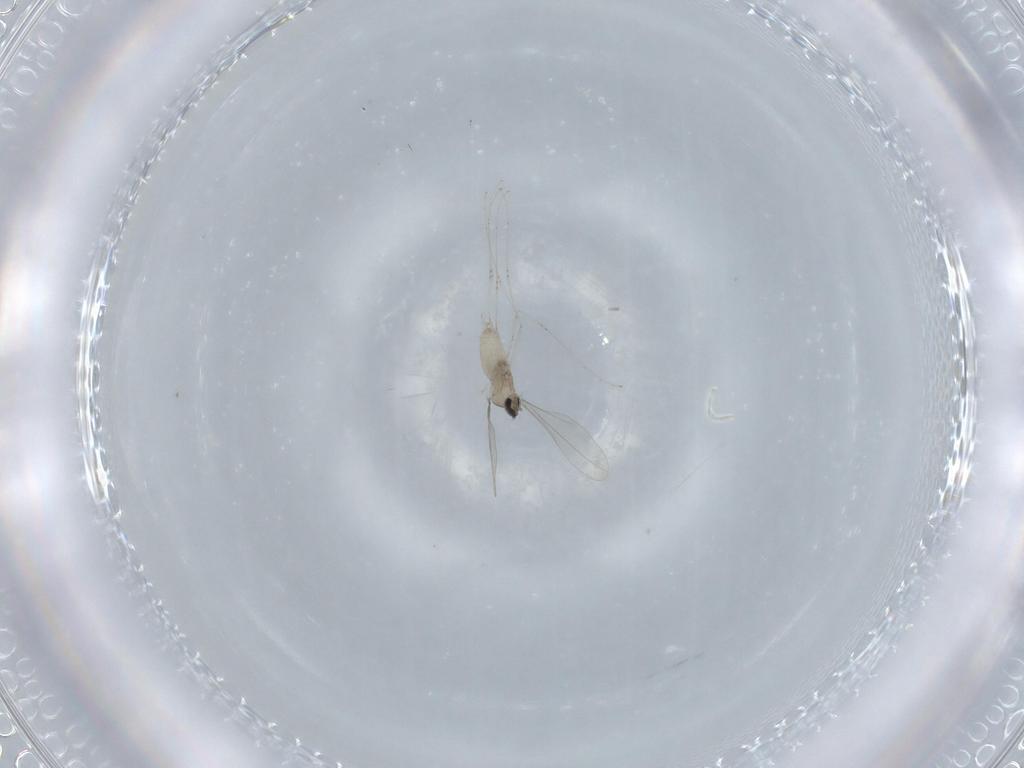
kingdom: Animalia
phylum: Arthropoda
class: Insecta
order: Diptera
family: Cecidomyiidae
